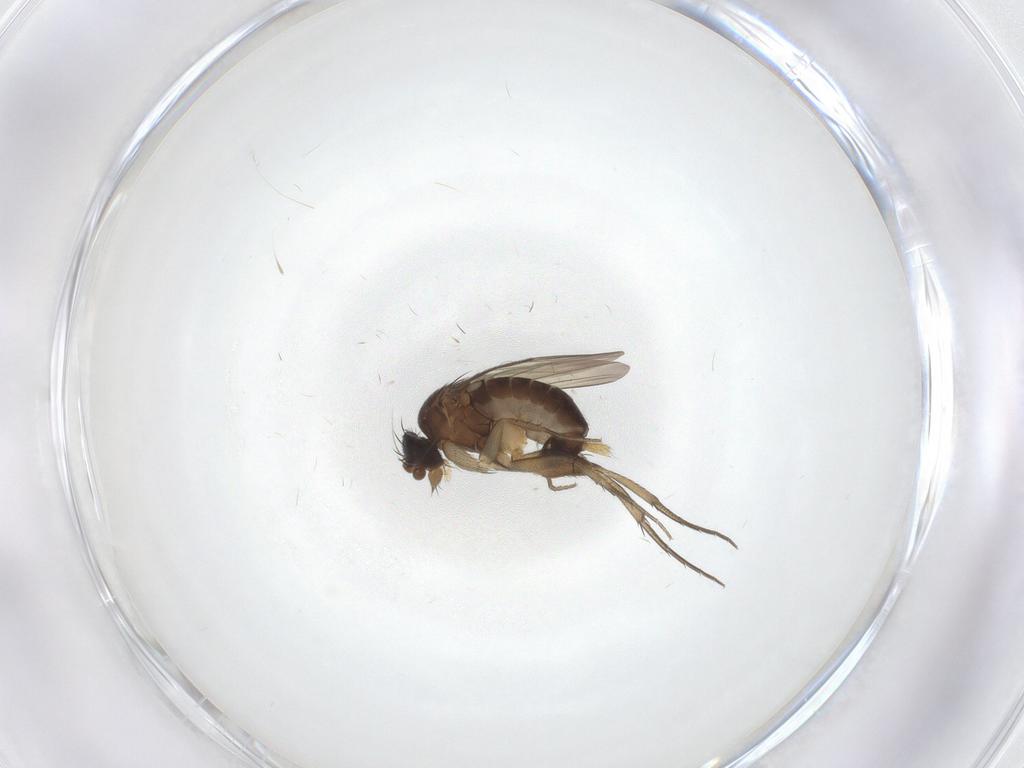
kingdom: Animalia
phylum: Arthropoda
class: Insecta
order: Diptera
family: Phoridae
